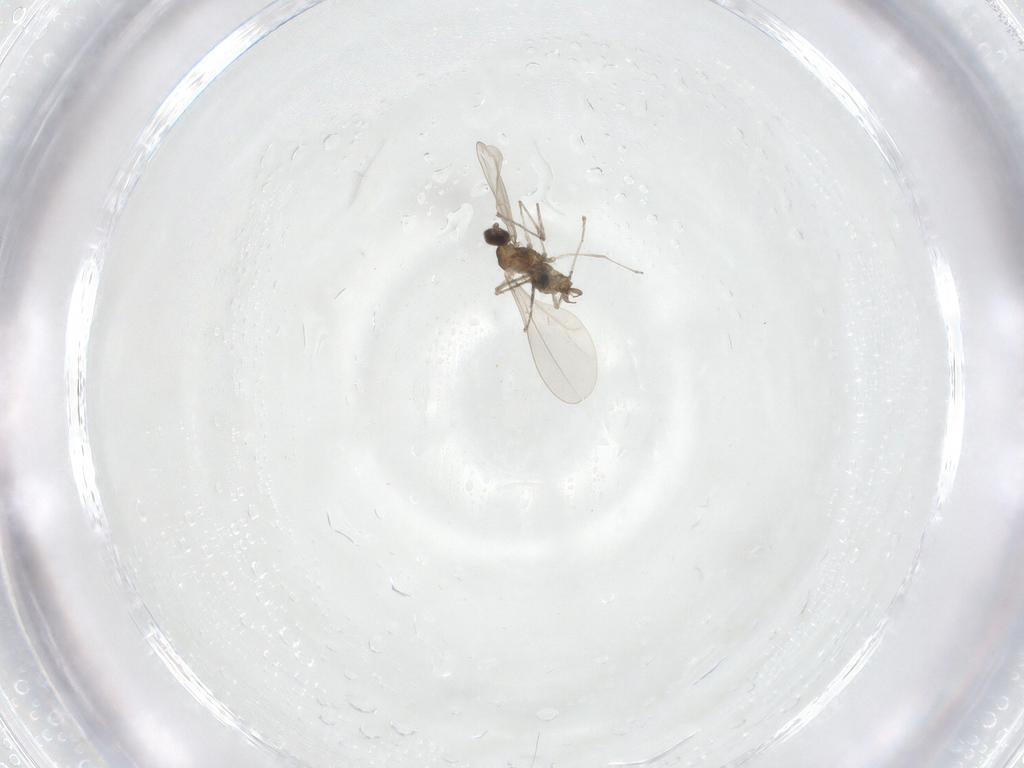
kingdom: Animalia
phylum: Arthropoda
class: Insecta
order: Diptera
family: Cecidomyiidae
